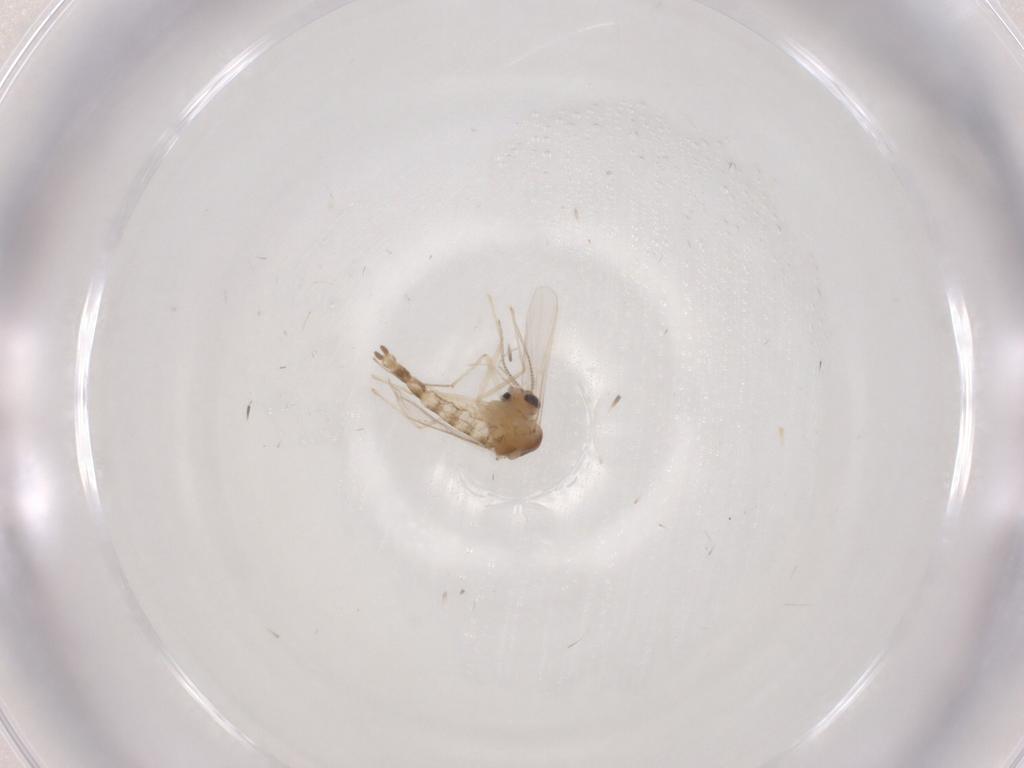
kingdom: Animalia
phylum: Arthropoda
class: Insecta
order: Diptera
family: Chironomidae
